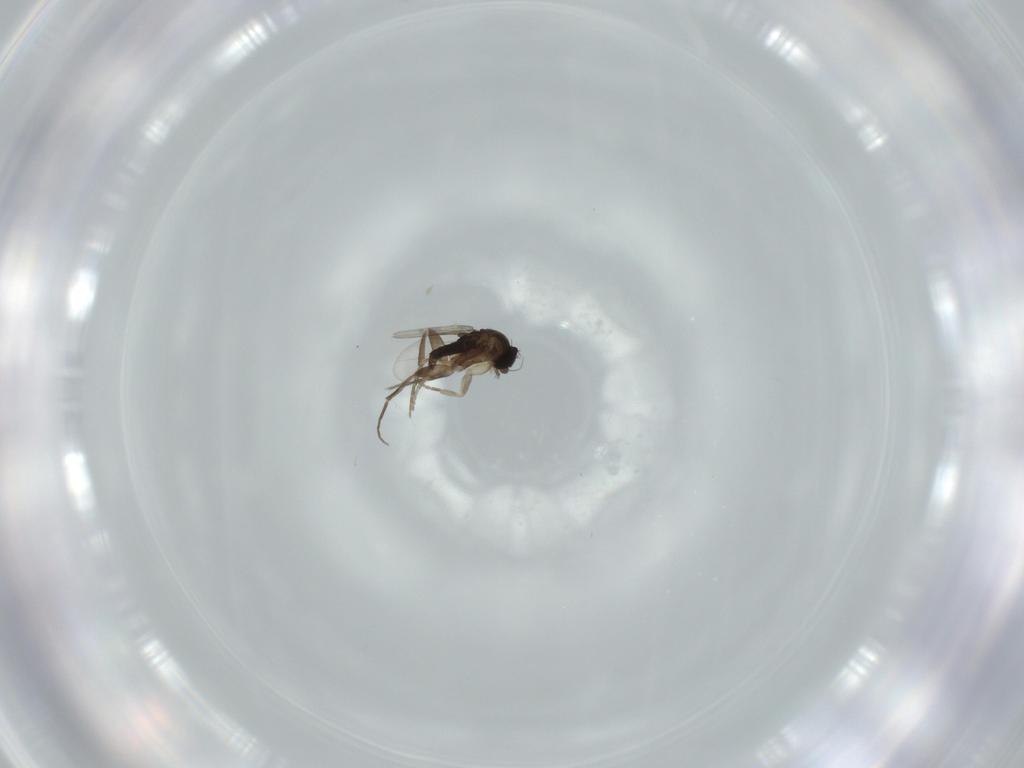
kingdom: Animalia
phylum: Arthropoda
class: Insecta
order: Diptera
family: Phoridae
